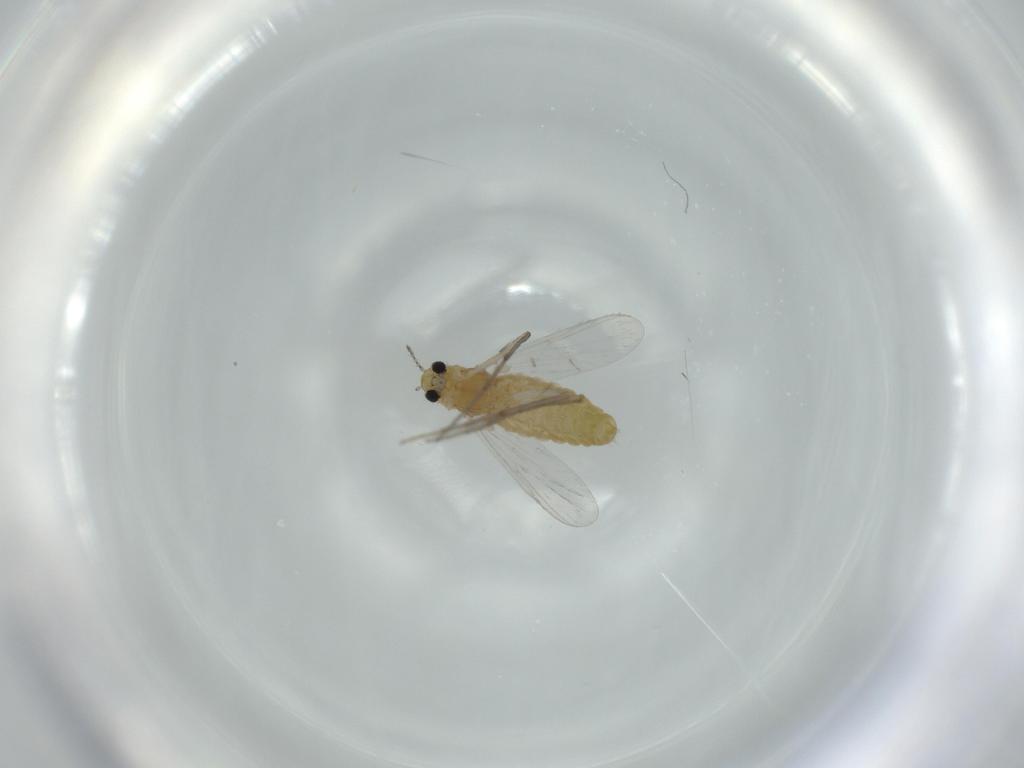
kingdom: Animalia
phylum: Arthropoda
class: Insecta
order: Diptera
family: Chironomidae
